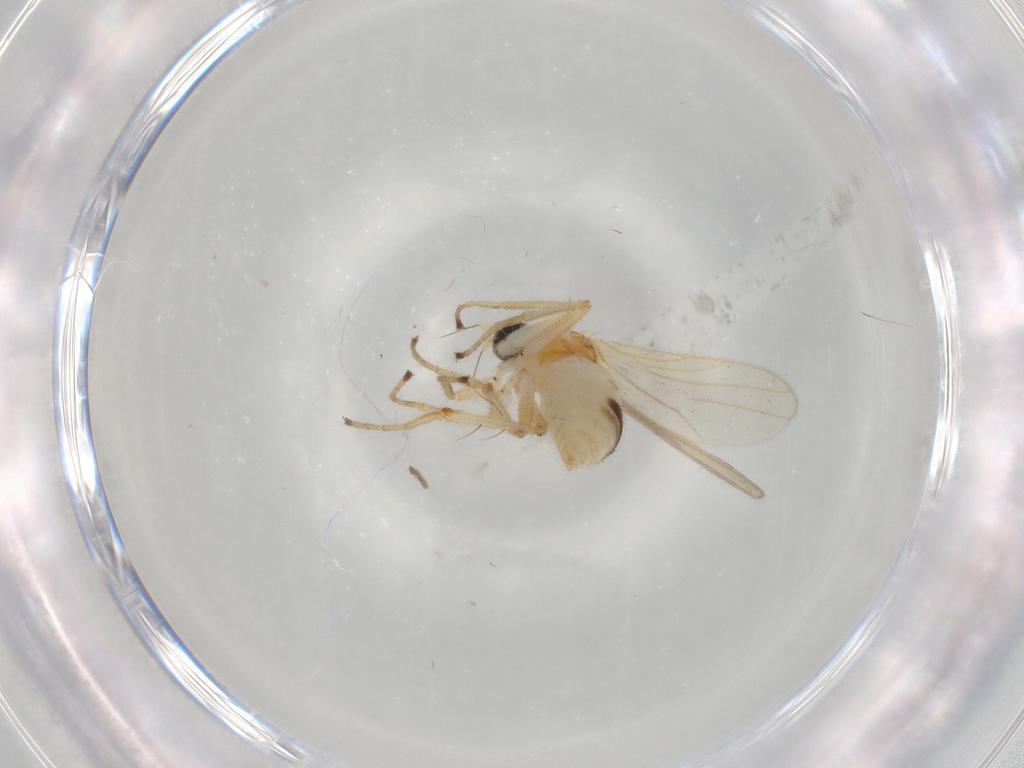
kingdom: Animalia
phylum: Arthropoda
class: Insecta
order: Diptera
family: Hybotidae
